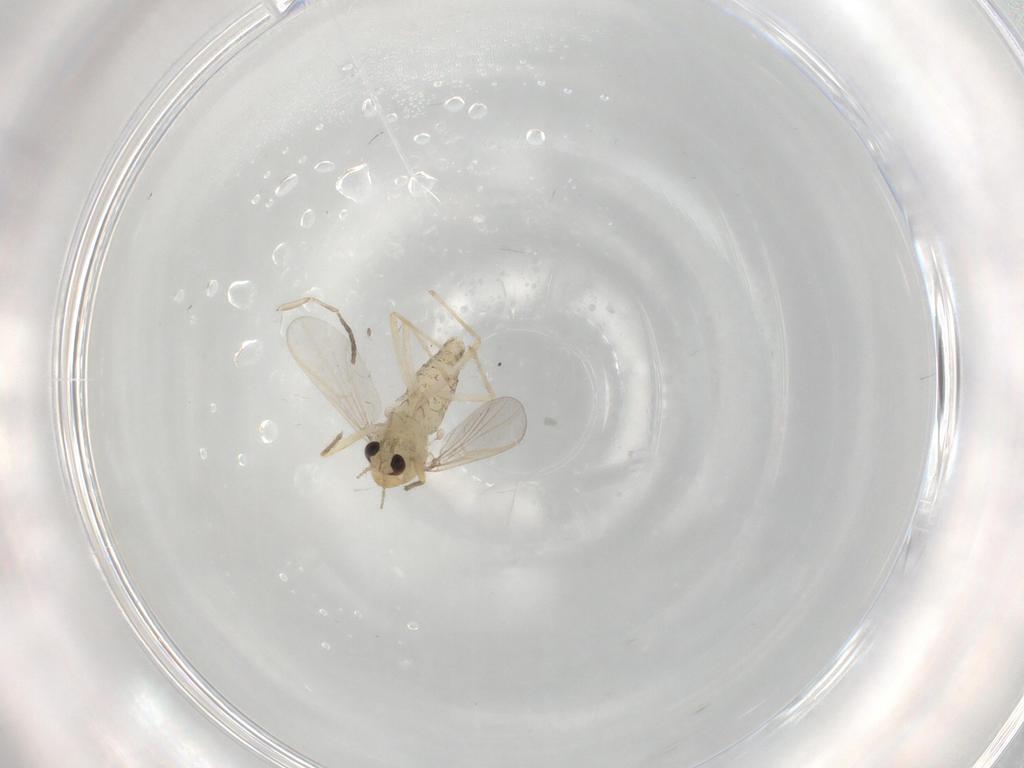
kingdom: Animalia
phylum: Arthropoda
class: Insecta
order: Diptera
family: Chironomidae
